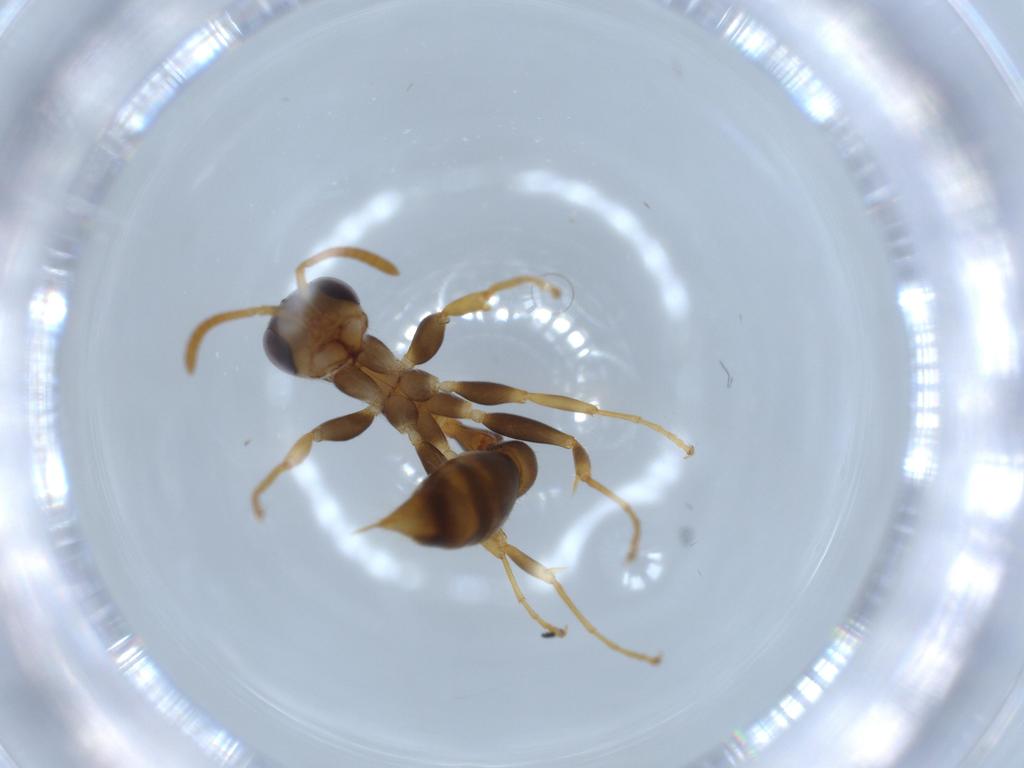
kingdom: Animalia
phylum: Arthropoda
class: Insecta
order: Hymenoptera
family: Formicidae
